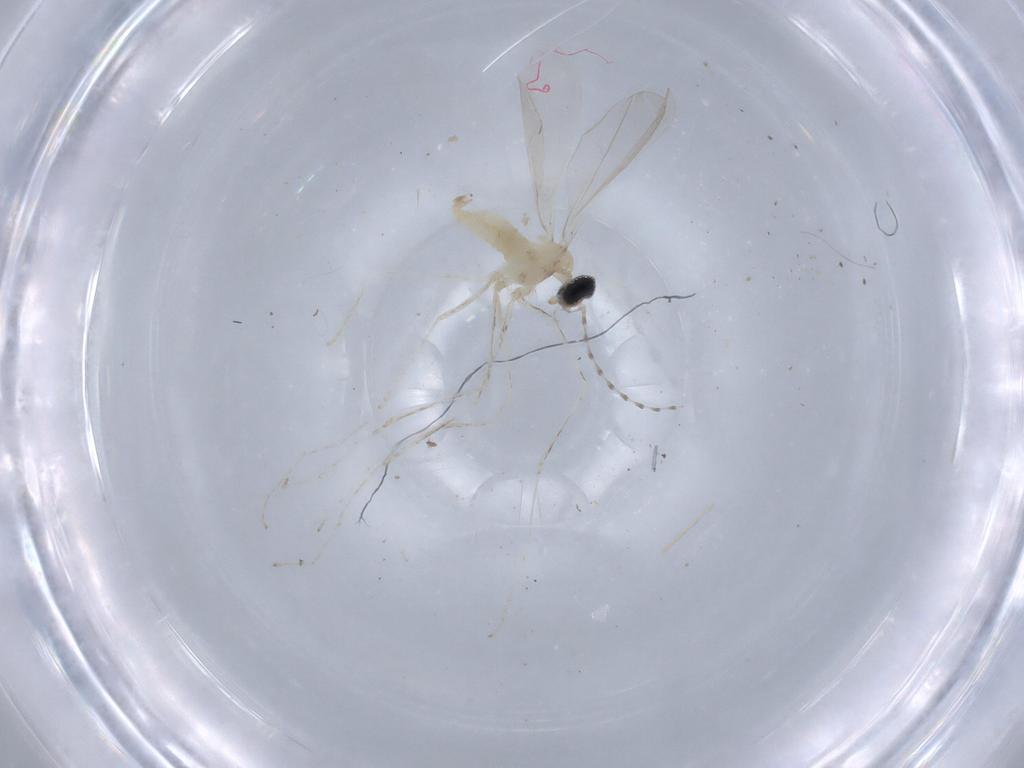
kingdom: Animalia
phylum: Arthropoda
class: Insecta
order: Diptera
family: Cecidomyiidae
